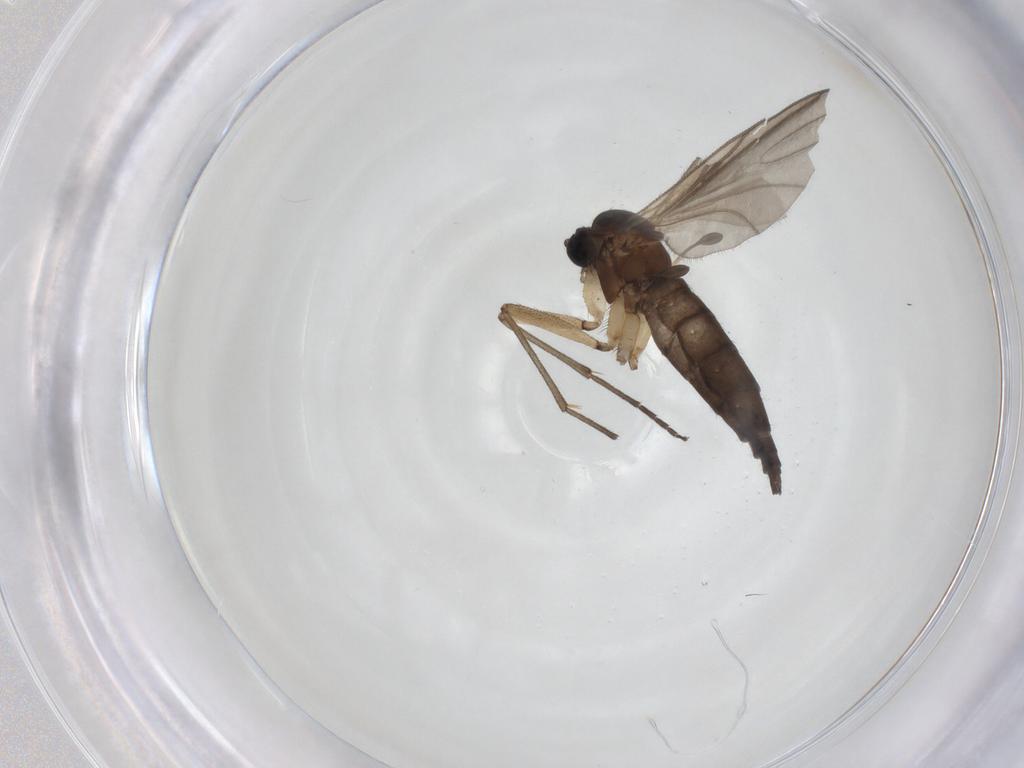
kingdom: Animalia
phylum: Arthropoda
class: Insecta
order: Diptera
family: Sciaridae
